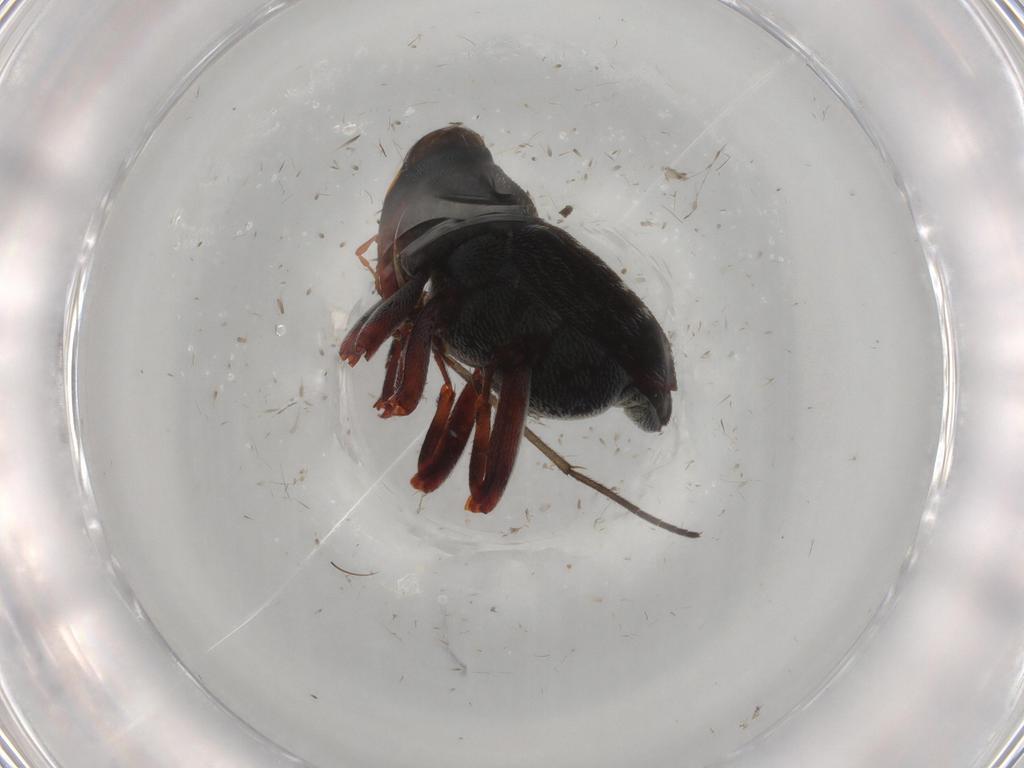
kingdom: Animalia
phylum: Arthropoda
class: Insecta
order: Coleoptera
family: Curculionidae
